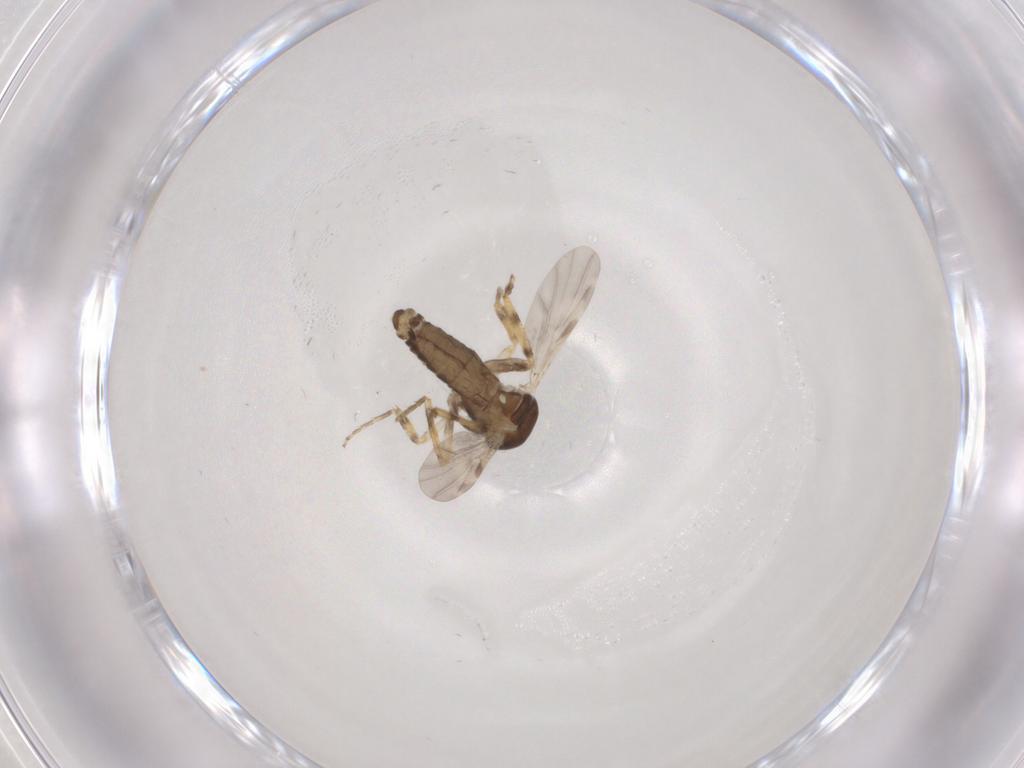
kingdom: Animalia
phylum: Arthropoda
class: Insecta
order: Diptera
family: Ceratopogonidae
